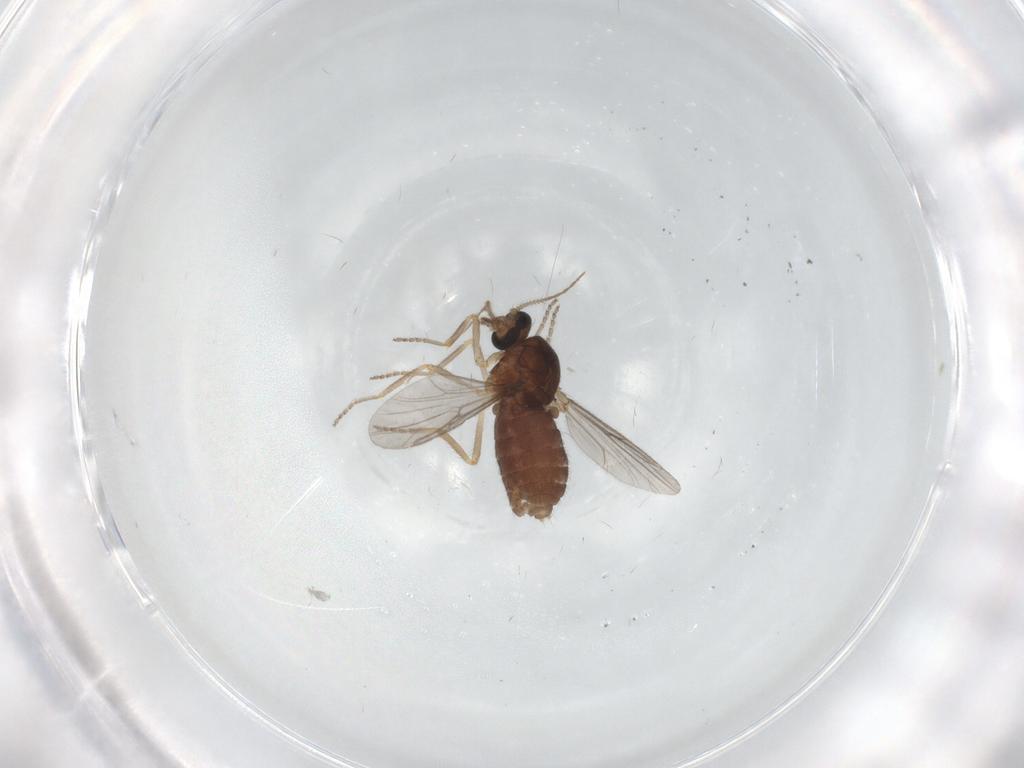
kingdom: Animalia
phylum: Arthropoda
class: Insecta
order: Diptera
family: Ceratopogonidae
